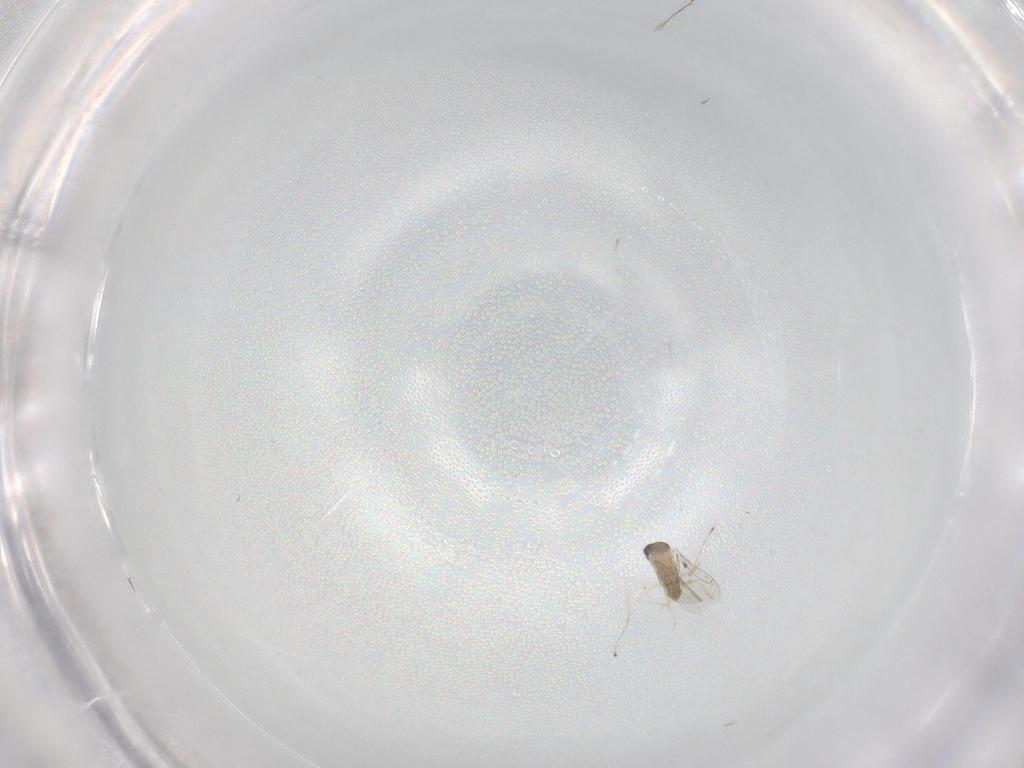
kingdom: Animalia
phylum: Arthropoda
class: Insecta
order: Diptera
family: Cecidomyiidae
